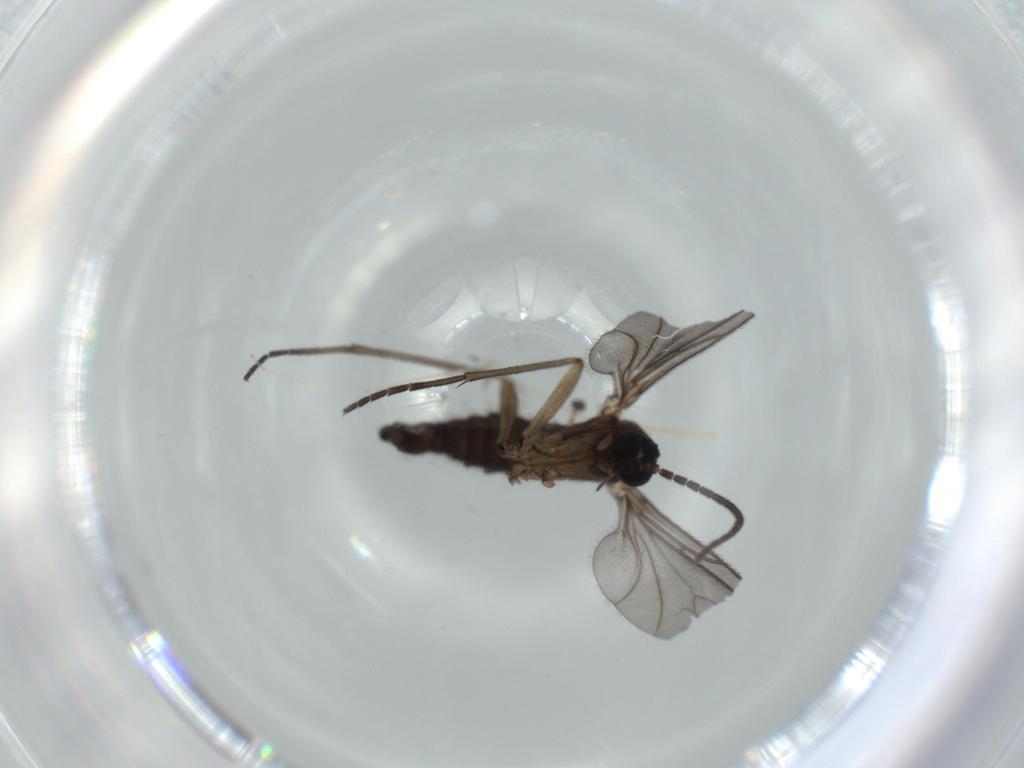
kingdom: Animalia
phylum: Arthropoda
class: Insecta
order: Diptera
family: Sciaridae
